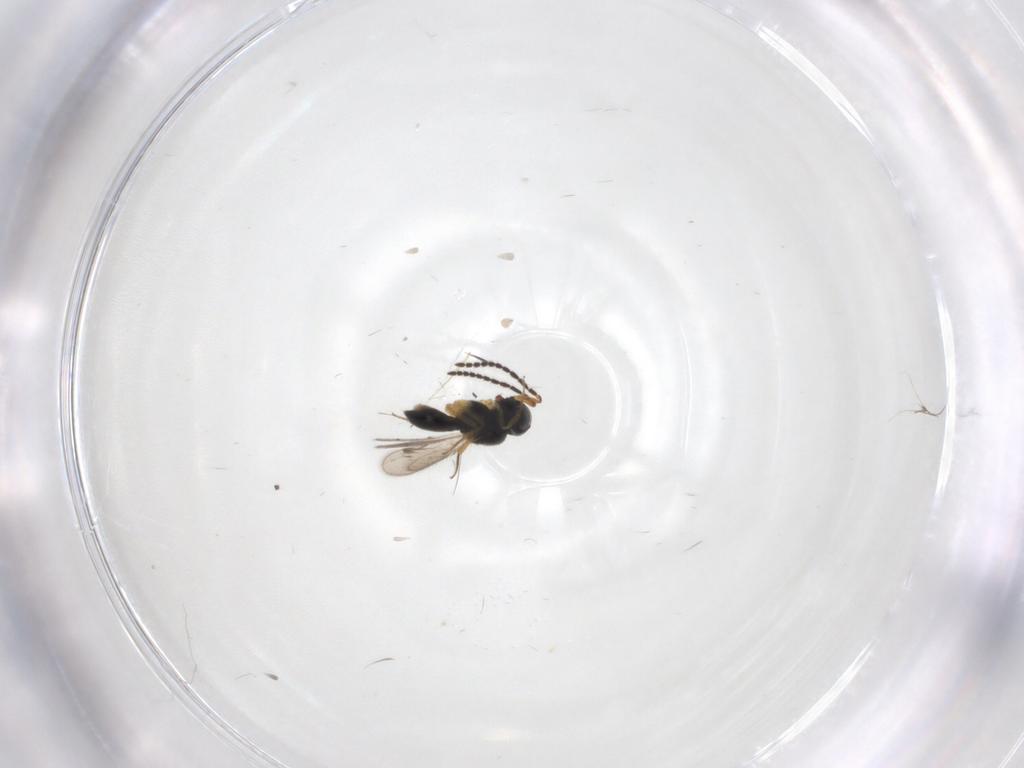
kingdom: Animalia
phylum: Arthropoda
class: Insecta
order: Hymenoptera
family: Scelionidae
